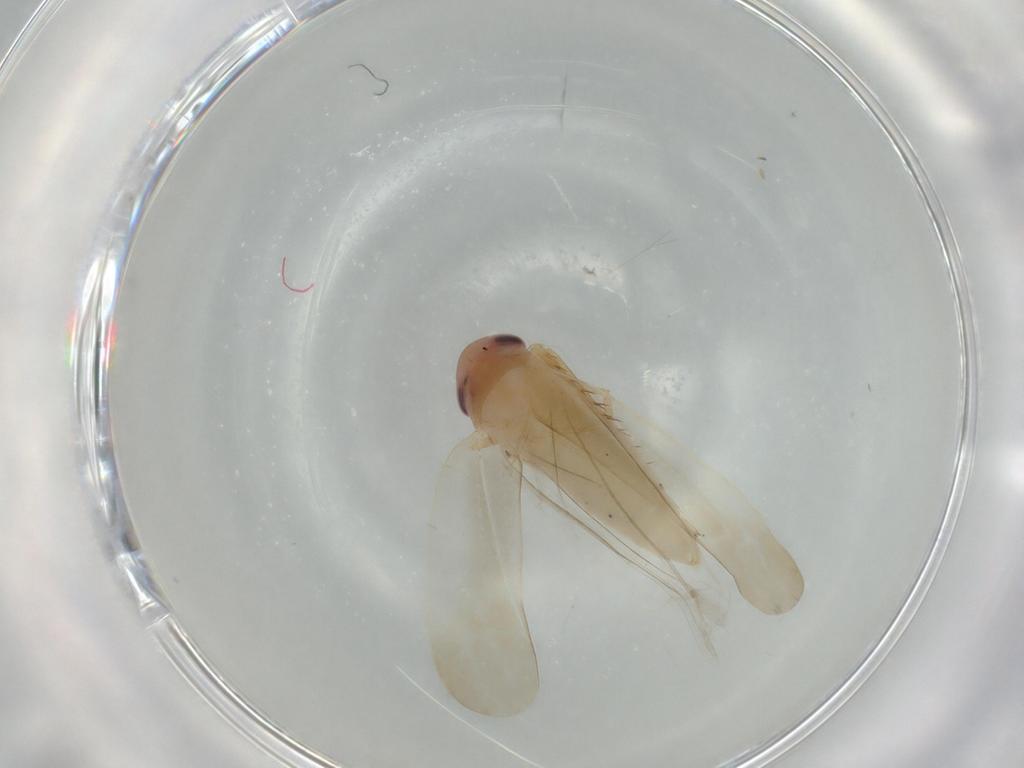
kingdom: Animalia
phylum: Arthropoda
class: Insecta
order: Hemiptera
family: Cicadellidae
